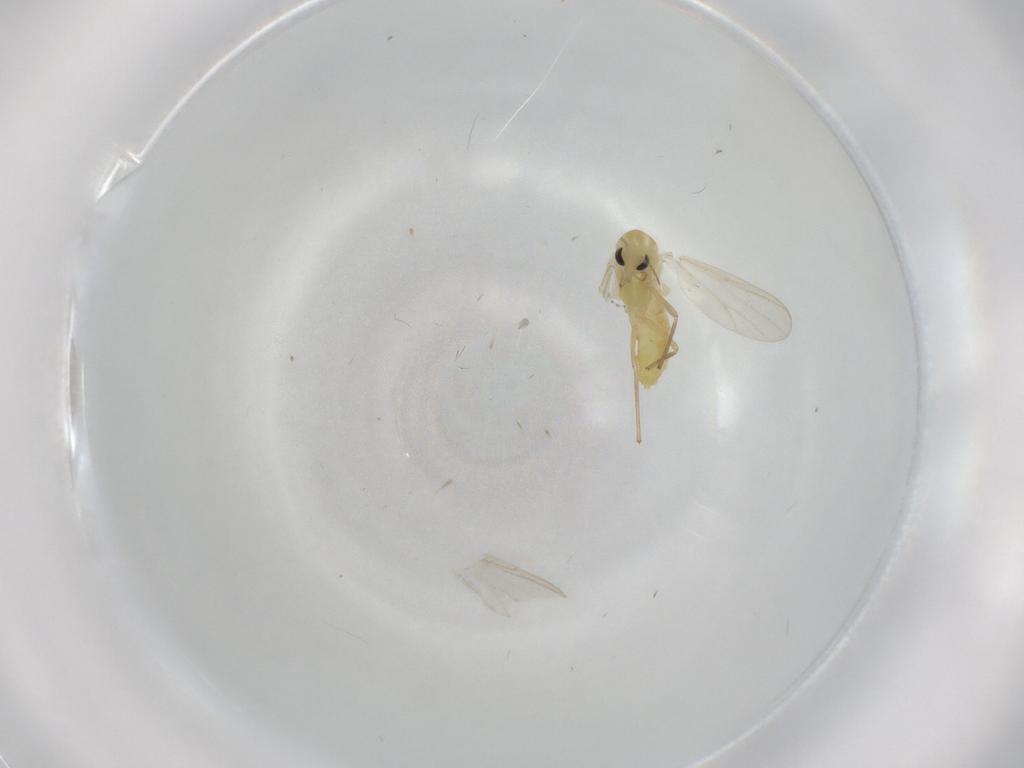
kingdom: Animalia
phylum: Arthropoda
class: Insecta
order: Diptera
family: Chironomidae
